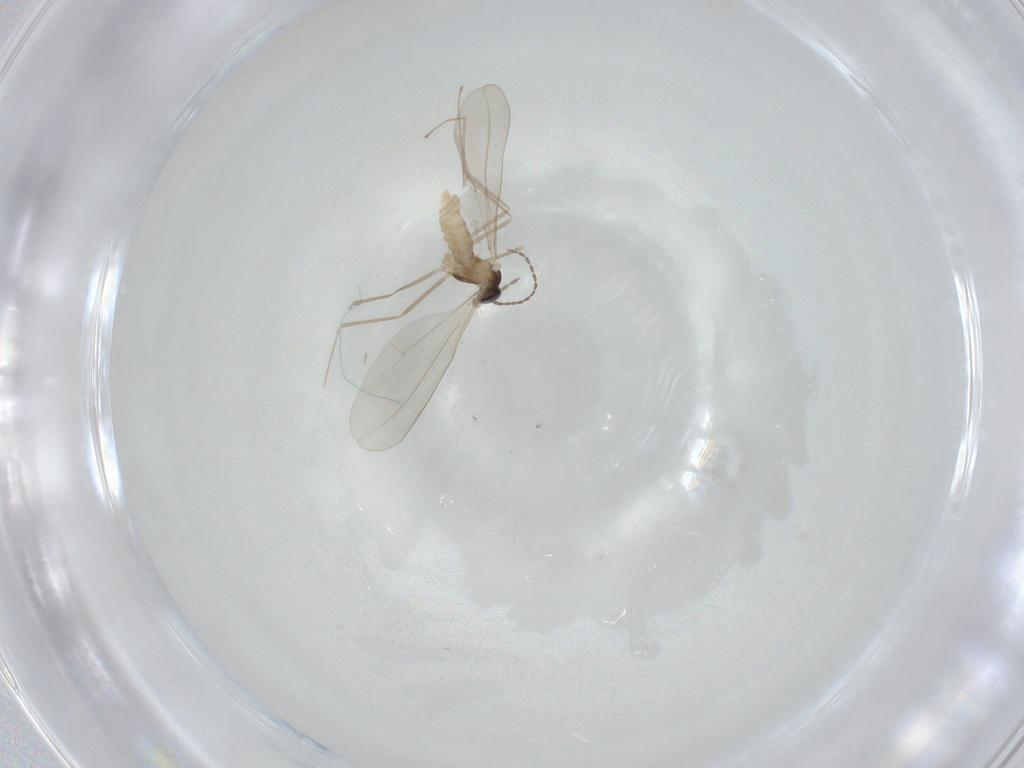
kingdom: Animalia
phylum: Arthropoda
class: Insecta
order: Diptera
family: Cecidomyiidae
